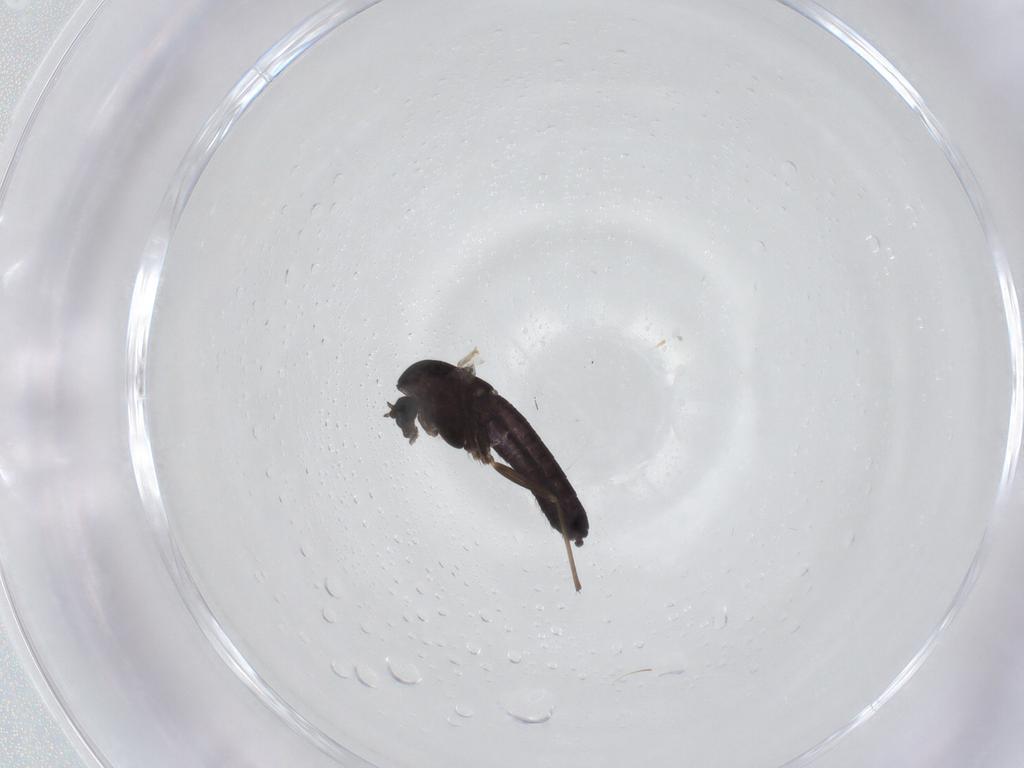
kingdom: Animalia
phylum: Arthropoda
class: Insecta
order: Diptera
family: Chironomidae
